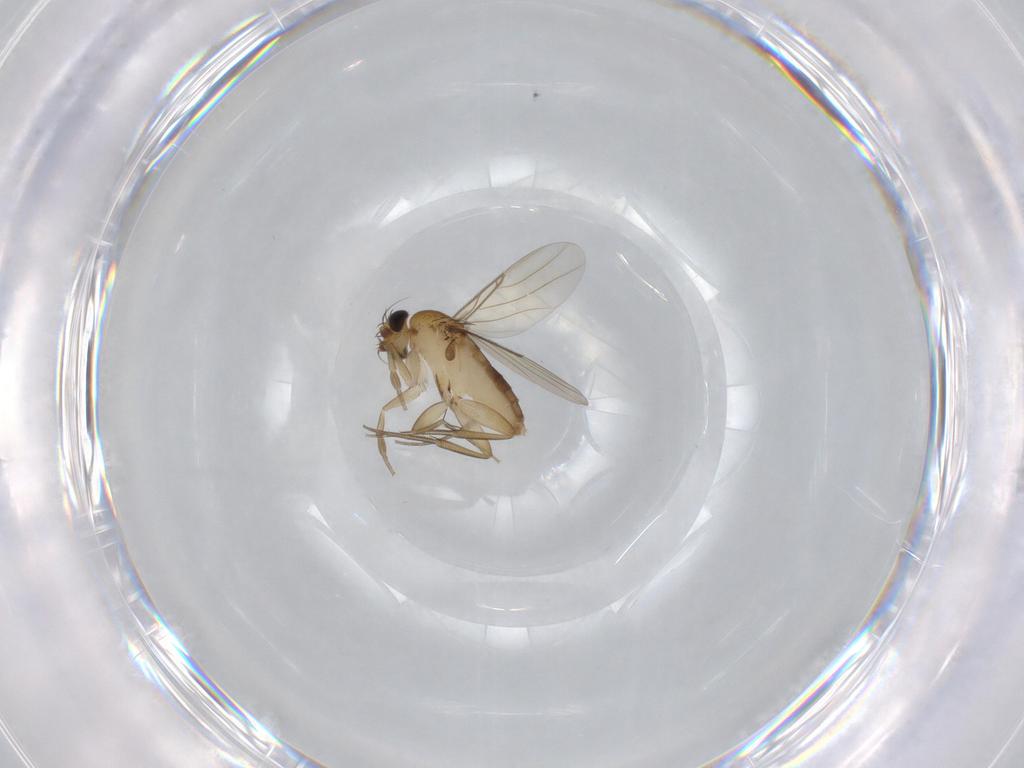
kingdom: Animalia
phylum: Arthropoda
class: Insecta
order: Diptera
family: Phoridae
